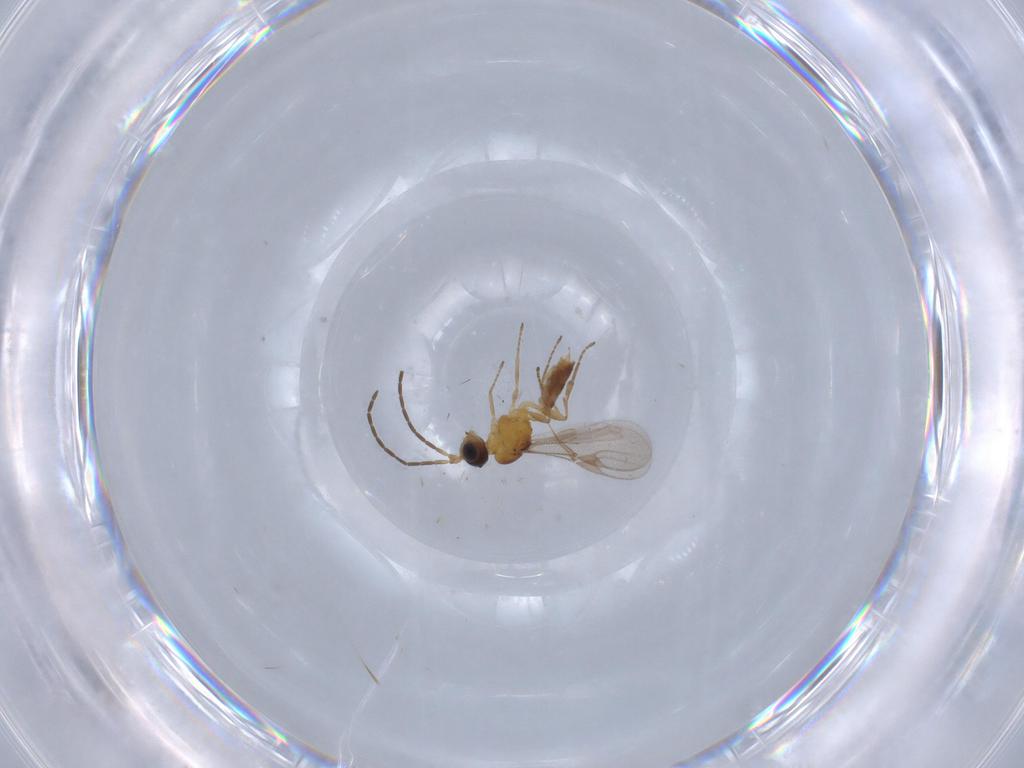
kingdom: Animalia
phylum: Arthropoda
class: Insecta
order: Hymenoptera
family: Braconidae
